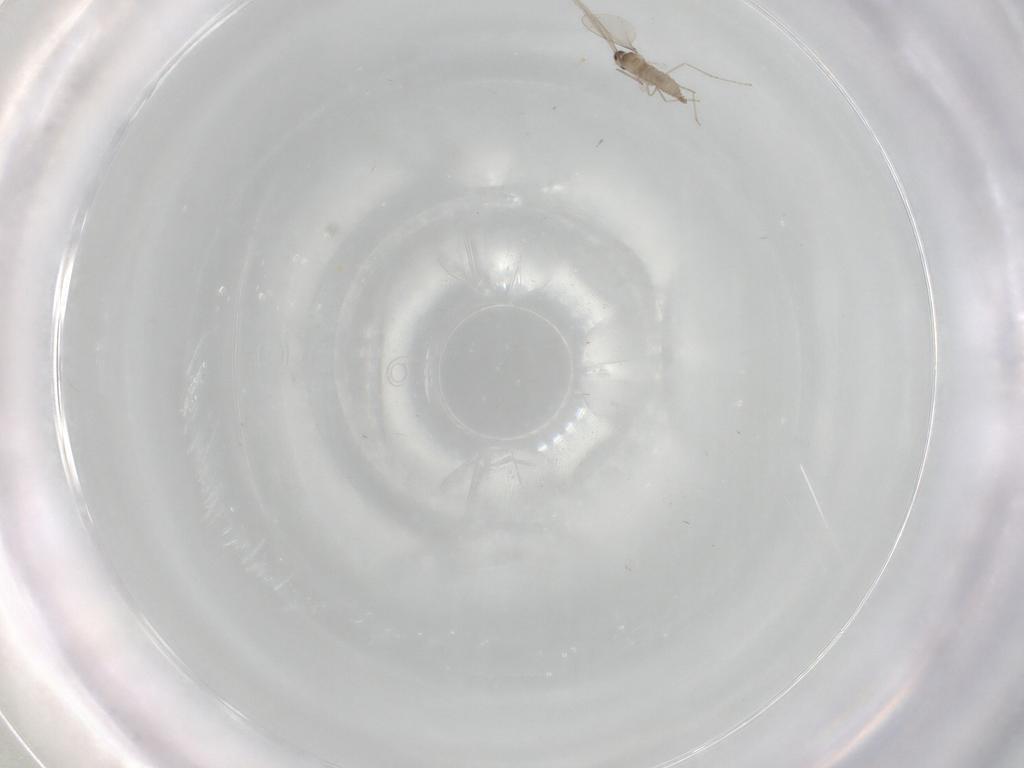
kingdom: Animalia
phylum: Arthropoda
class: Insecta
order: Diptera
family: Cecidomyiidae
